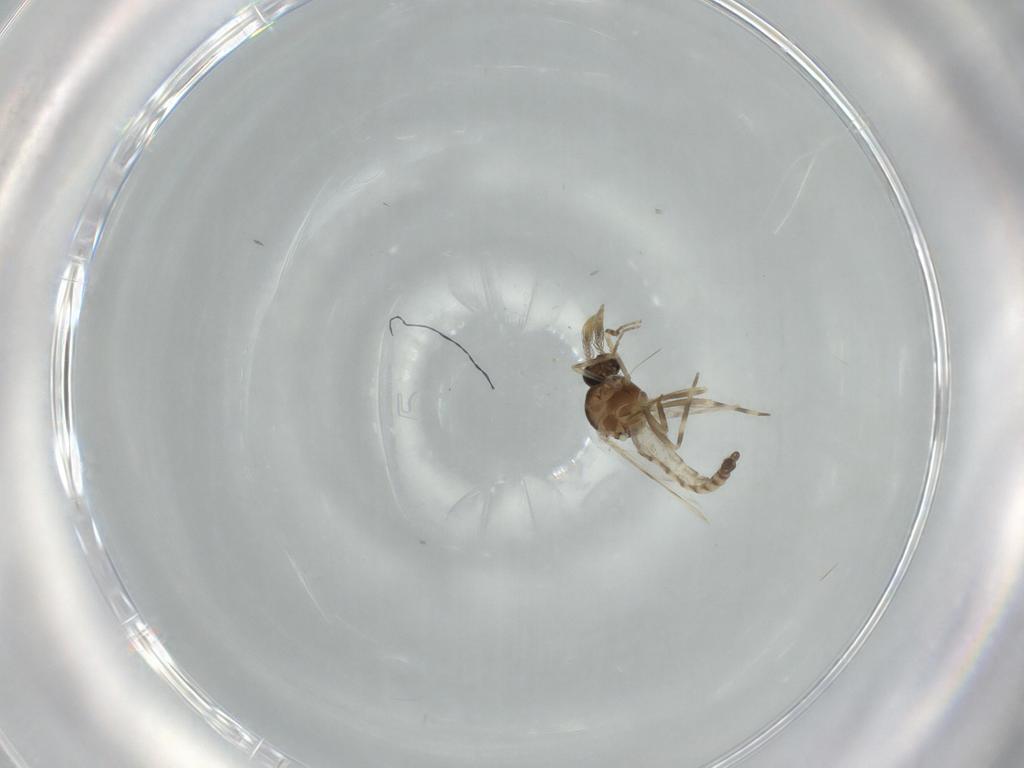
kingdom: Animalia
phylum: Arthropoda
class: Insecta
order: Diptera
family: Ceratopogonidae
